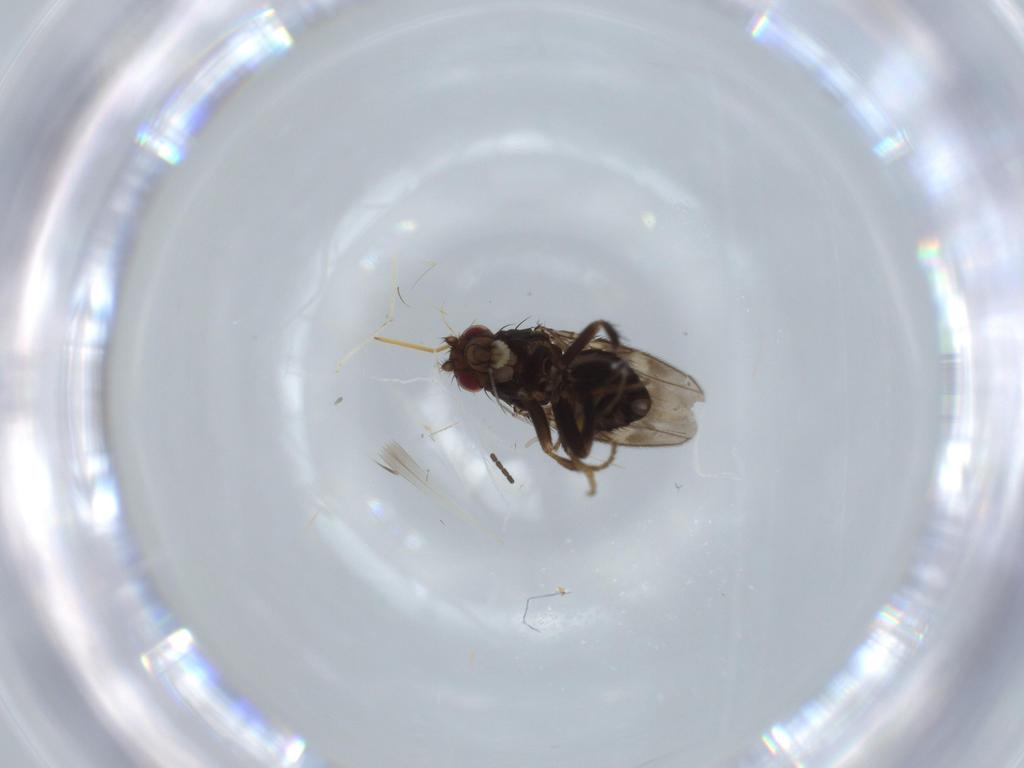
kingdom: Animalia
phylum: Arthropoda
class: Insecta
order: Diptera
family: Sphaeroceridae
